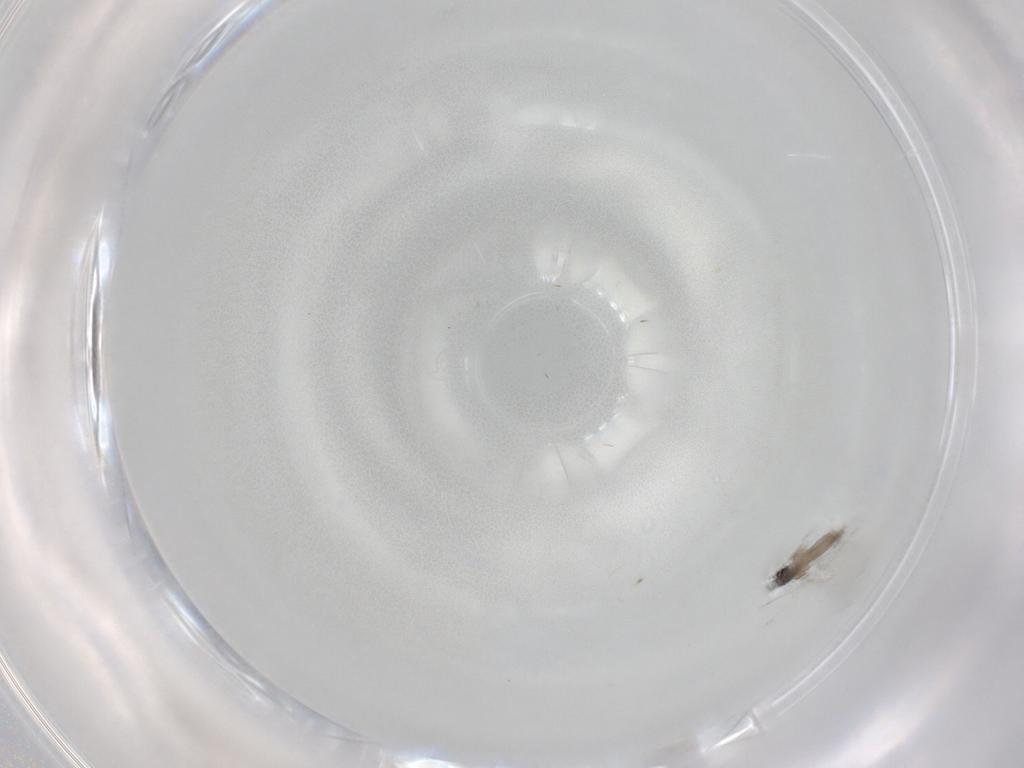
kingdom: Animalia
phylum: Arthropoda
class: Insecta
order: Diptera
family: Cecidomyiidae
